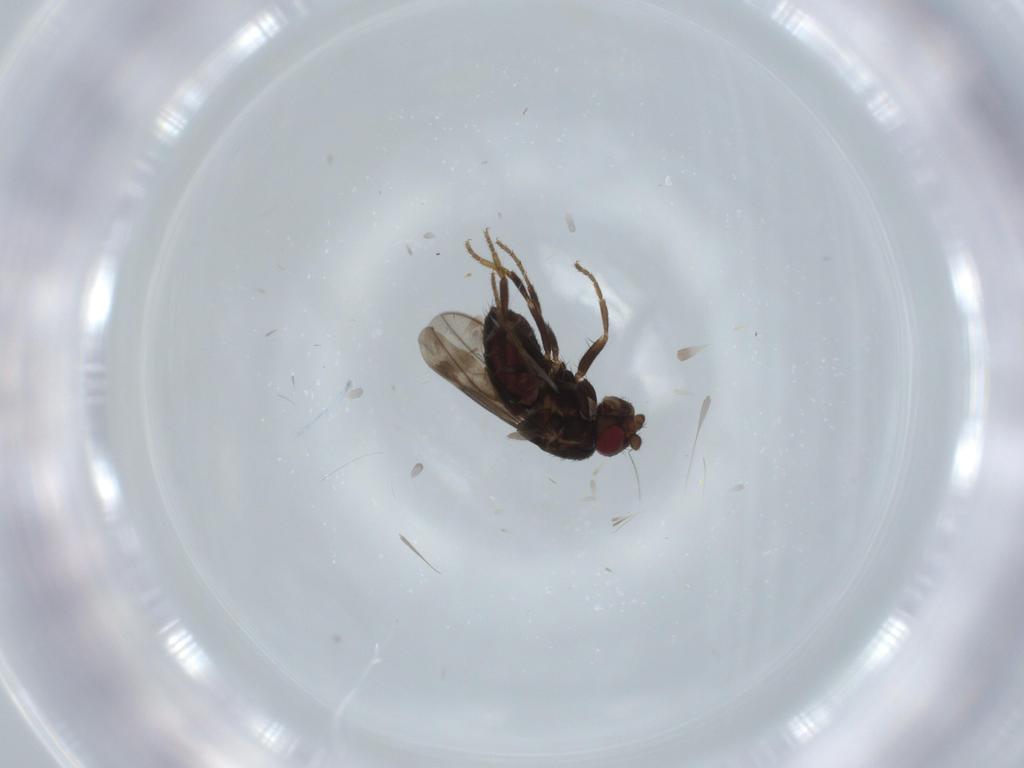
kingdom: Animalia
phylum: Arthropoda
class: Insecta
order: Diptera
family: Sphaeroceridae
